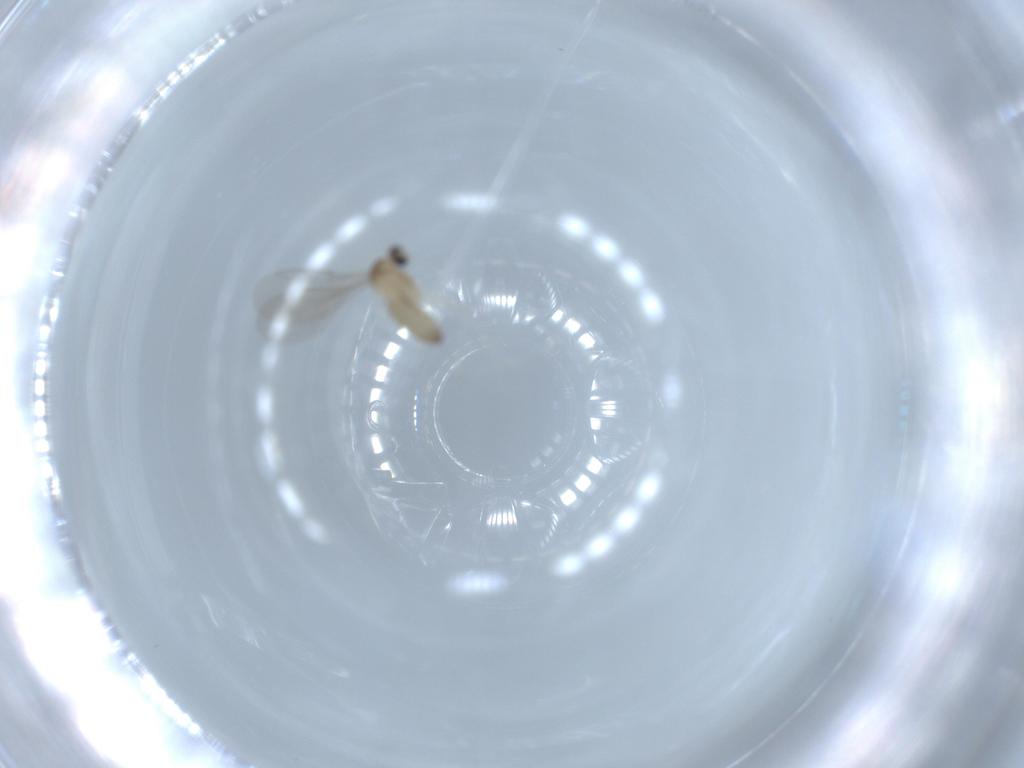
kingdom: Animalia
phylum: Arthropoda
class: Insecta
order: Diptera
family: Cecidomyiidae
